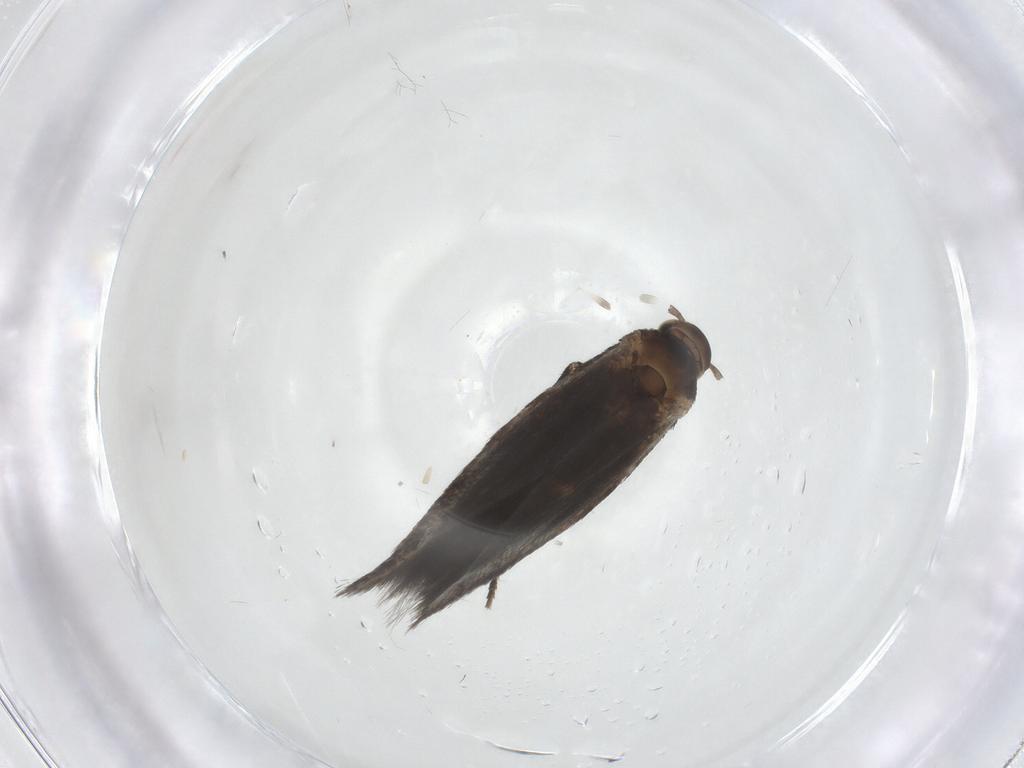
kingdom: Animalia
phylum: Arthropoda
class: Insecta
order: Lepidoptera
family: Elachistidae
